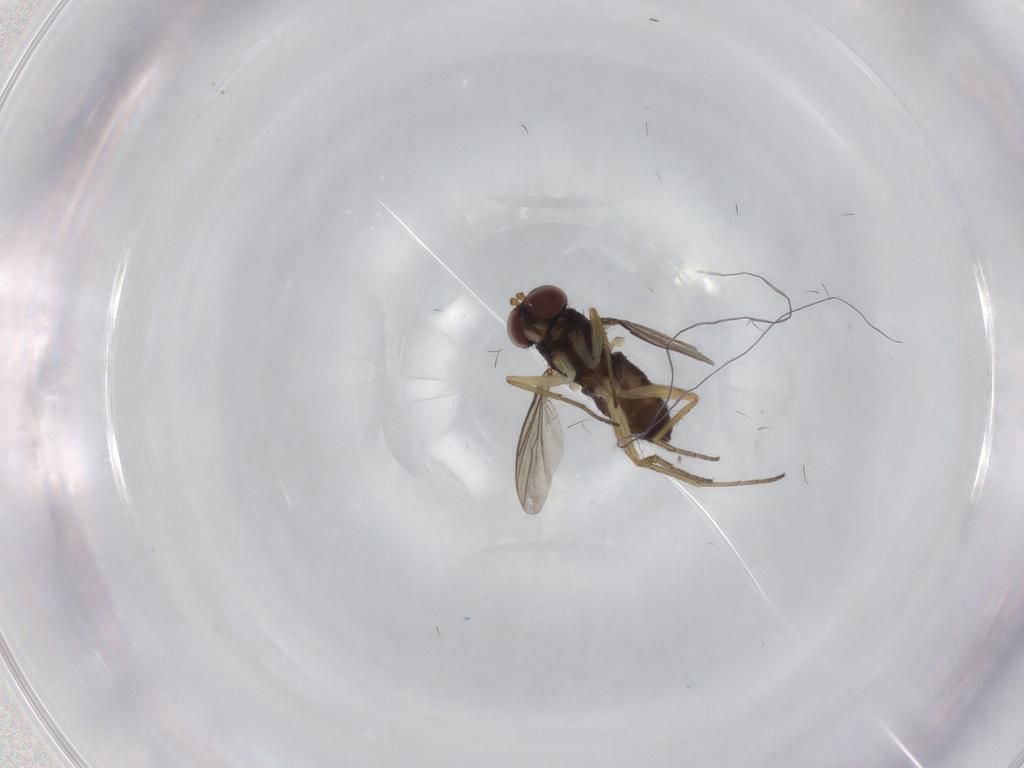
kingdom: Animalia
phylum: Arthropoda
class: Insecta
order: Diptera
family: Dolichopodidae
